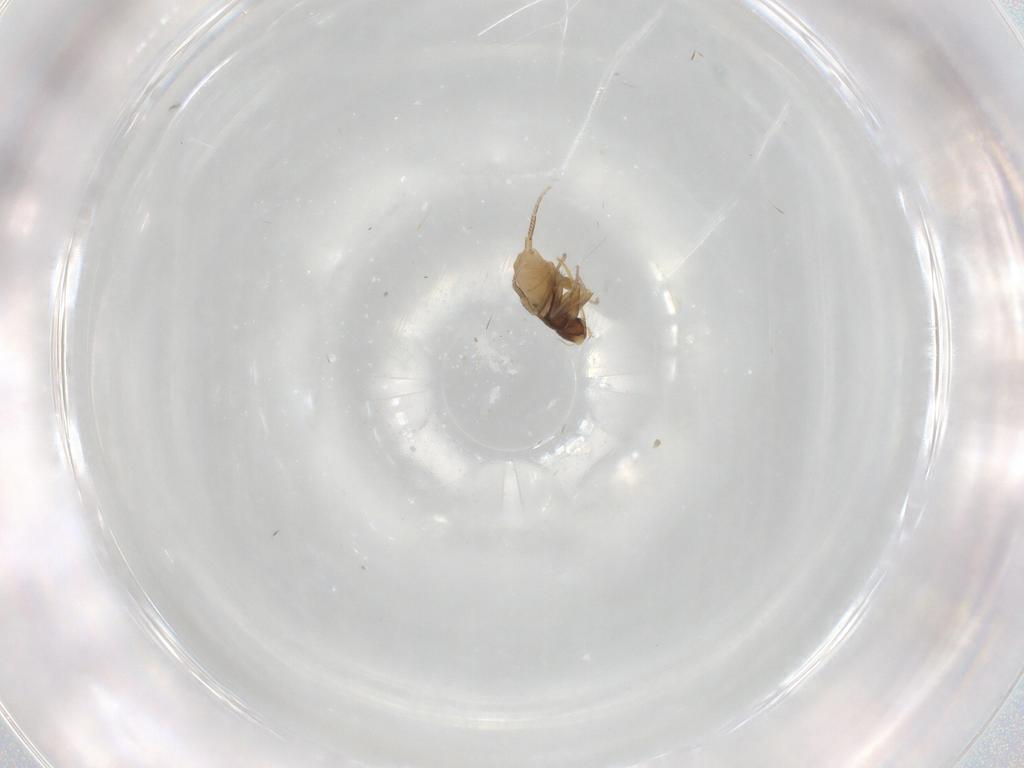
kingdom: Animalia
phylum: Arthropoda
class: Insecta
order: Diptera
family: Phoridae
